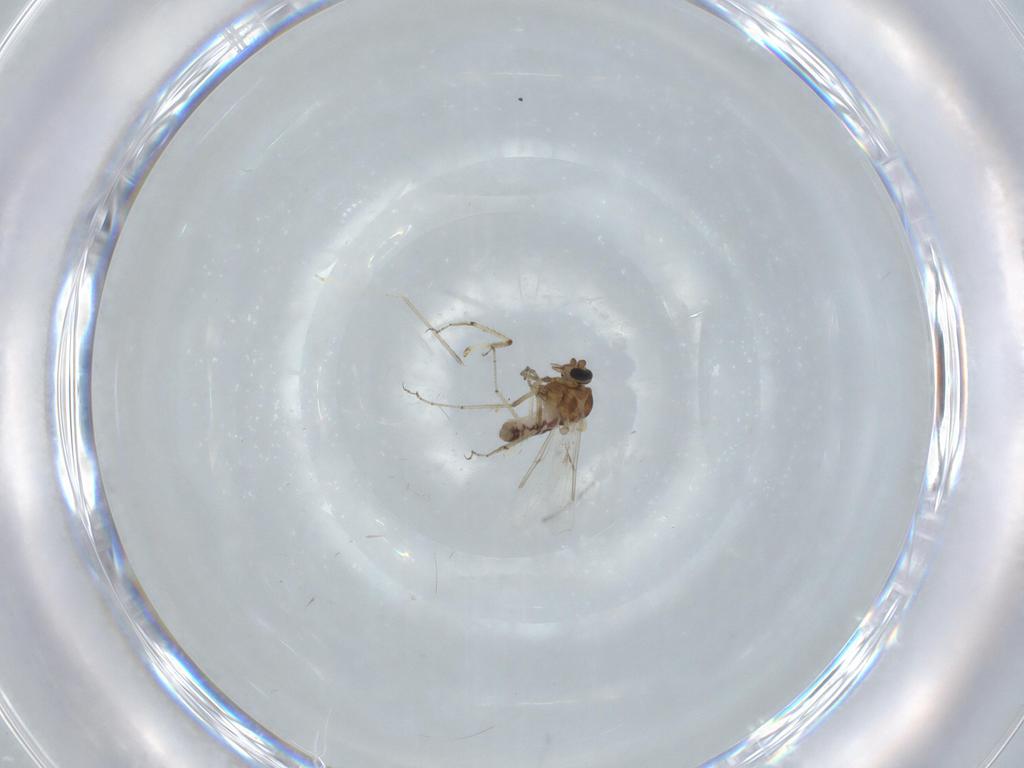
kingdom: Animalia
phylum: Arthropoda
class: Insecta
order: Diptera
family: Cecidomyiidae
